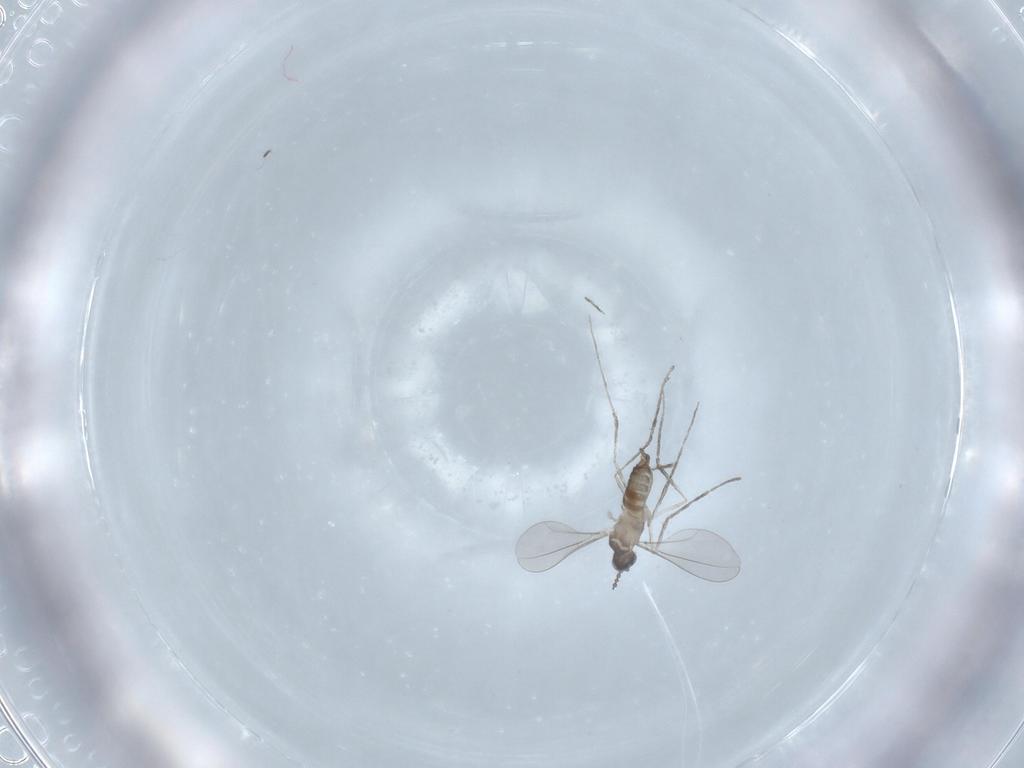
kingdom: Animalia
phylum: Arthropoda
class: Insecta
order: Diptera
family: Cecidomyiidae
